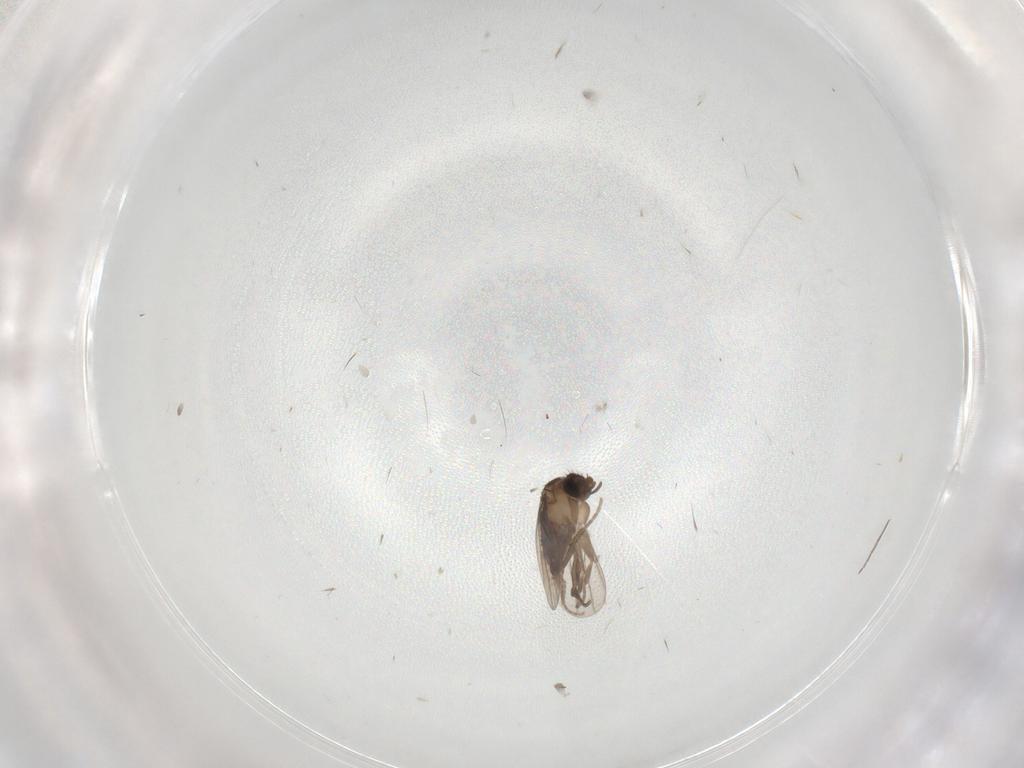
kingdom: Animalia
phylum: Arthropoda
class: Insecta
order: Diptera
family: Chironomidae
